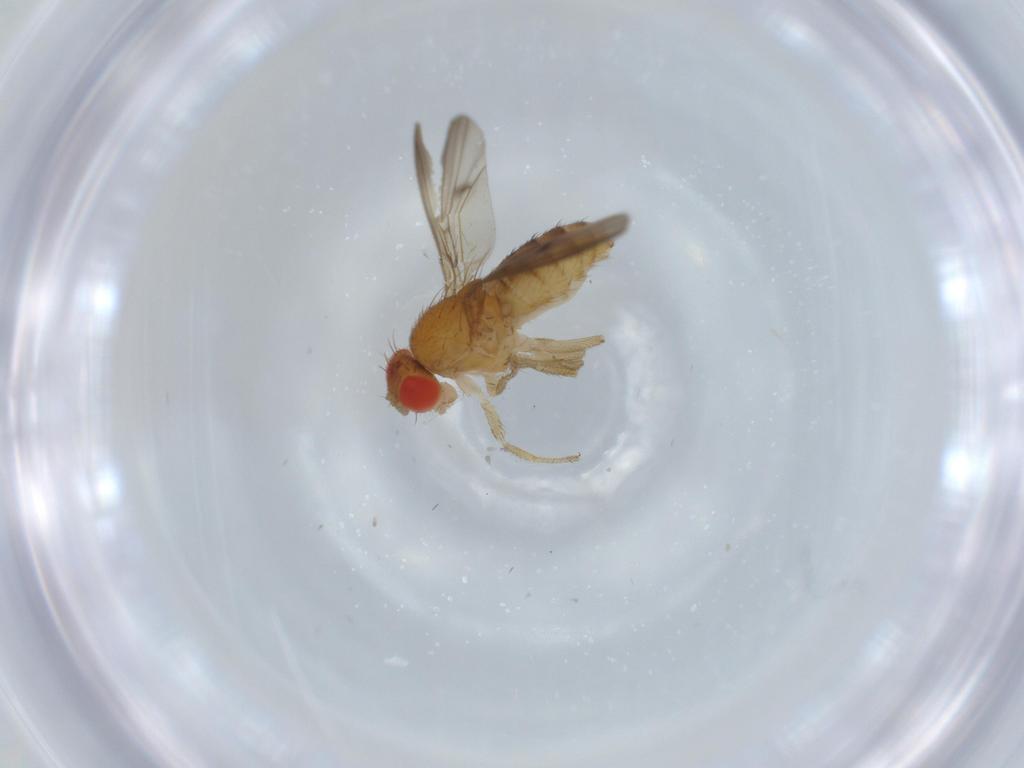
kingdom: Animalia
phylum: Arthropoda
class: Insecta
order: Diptera
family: Drosophilidae
